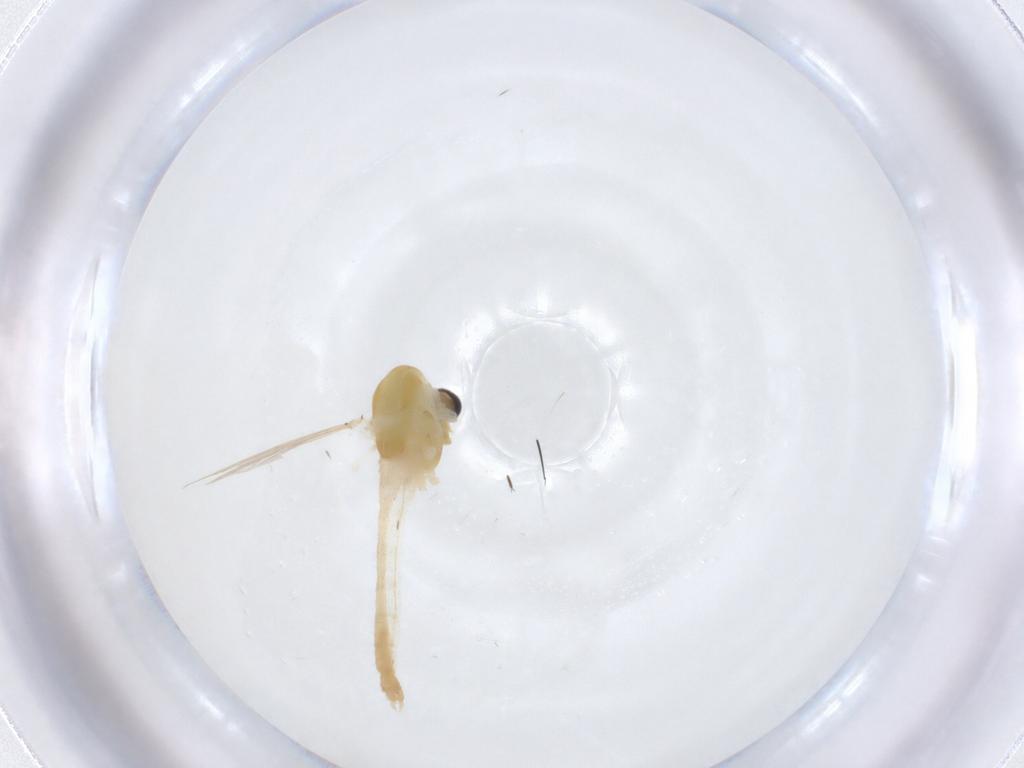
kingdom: Animalia
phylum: Arthropoda
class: Insecta
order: Diptera
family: Chironomidae
